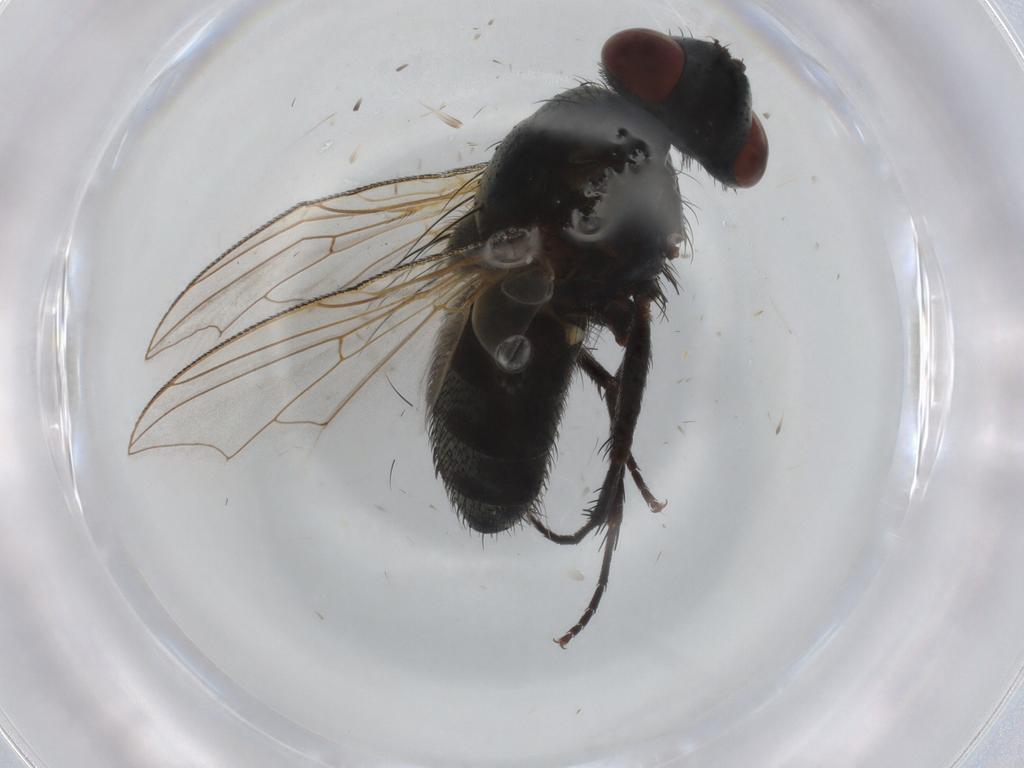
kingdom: Animalia
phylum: Arthropoda
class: Insecta
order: Diptera
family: Sarcophagidae
